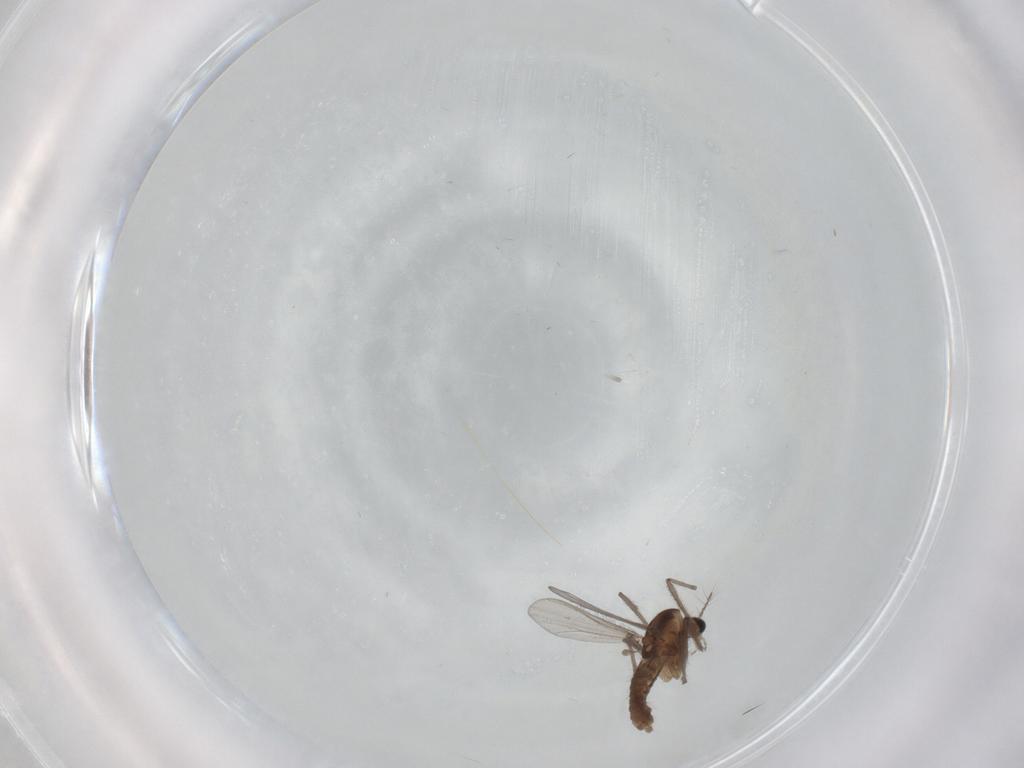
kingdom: Animalia
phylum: Arthropoda
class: Insecta
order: Diptera
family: Chironomidae
